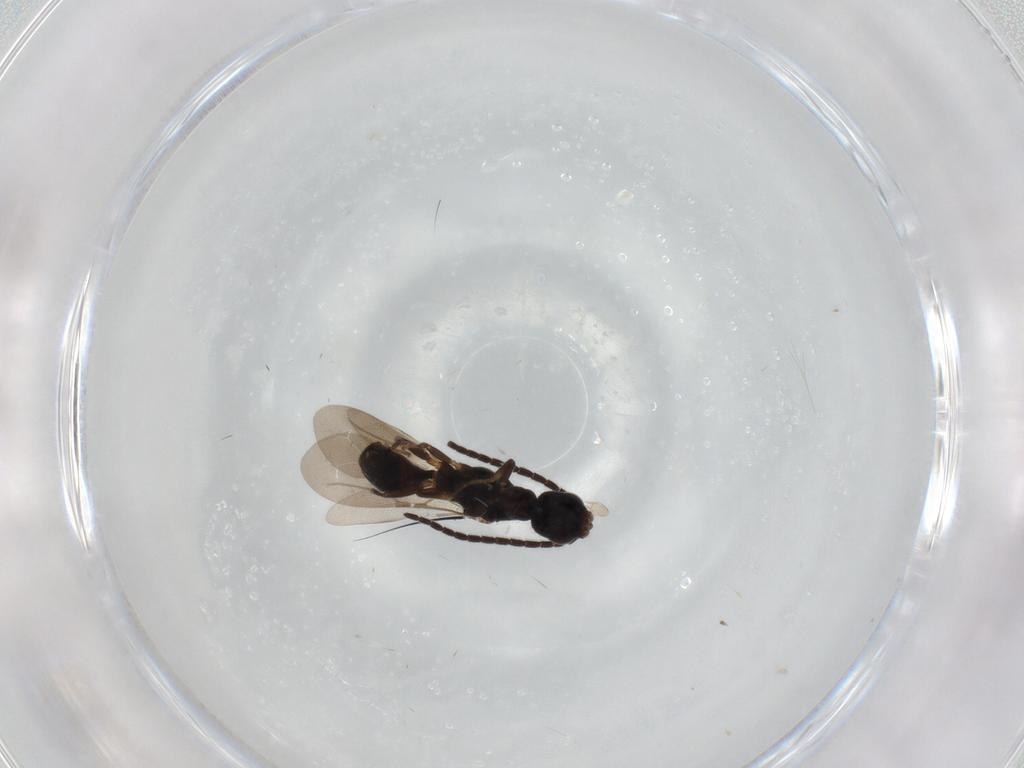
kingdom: Animalia
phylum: Arthropoda
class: Insecta
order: Hymenoptera
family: Bethylidae
